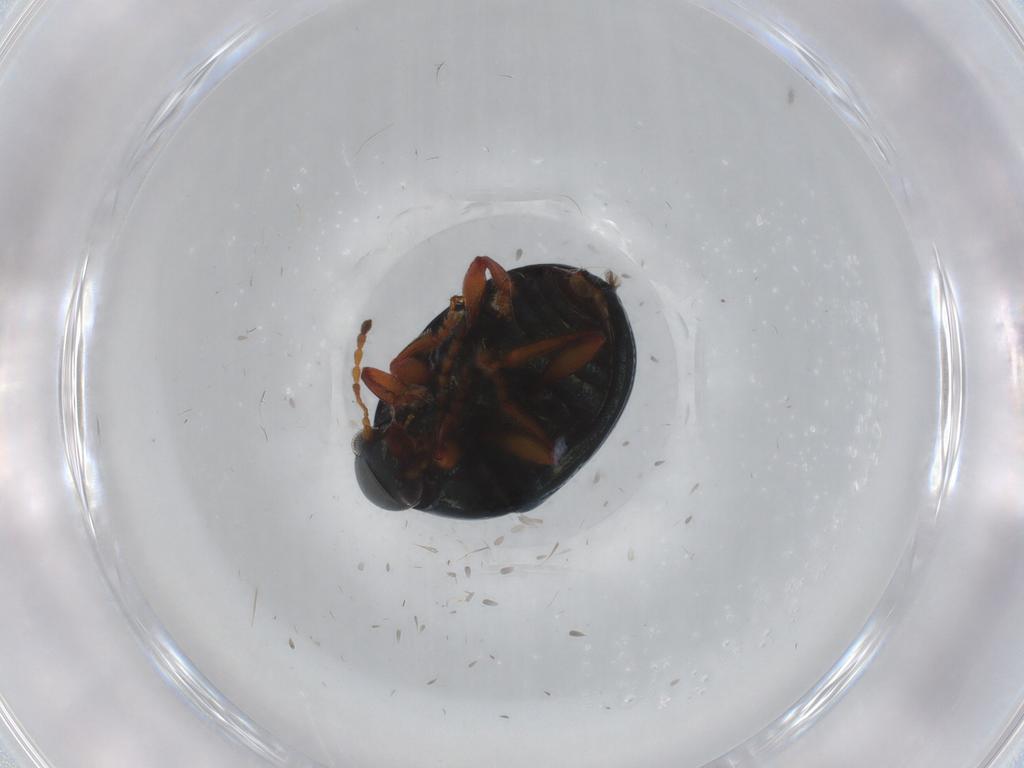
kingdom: Animalia
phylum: Arthropoda
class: Insecta
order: Coleoptera
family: Chrysomelidae
